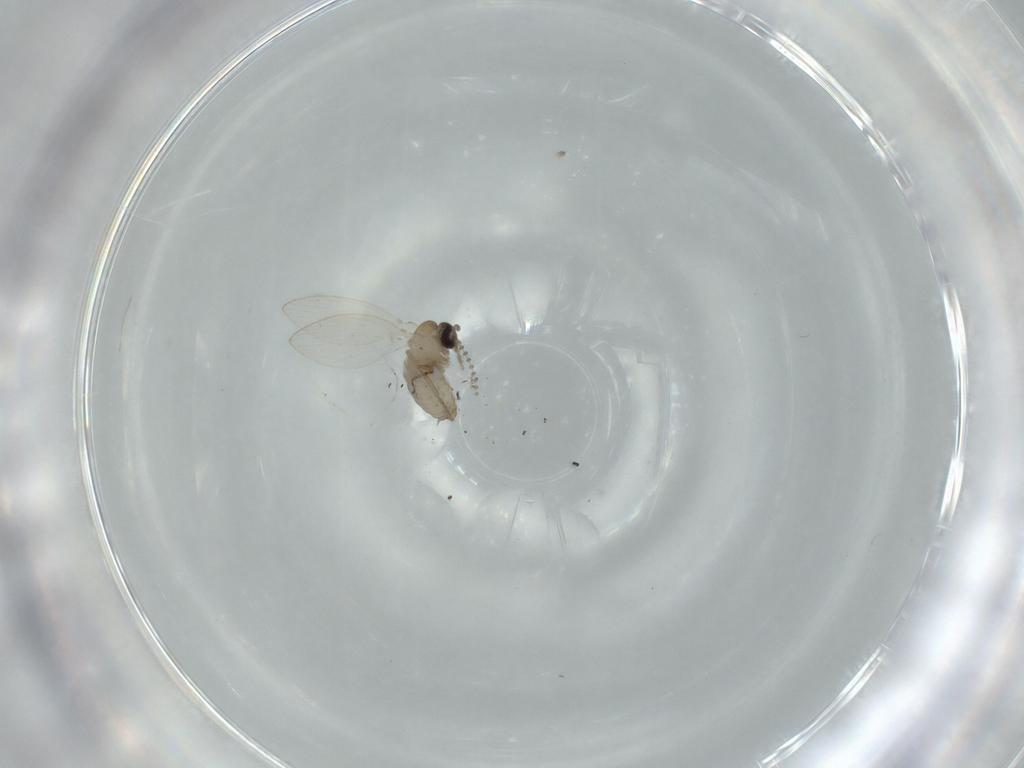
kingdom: Animalia
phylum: Arthropoda
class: Insecta
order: Diptera
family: Psychodidae
